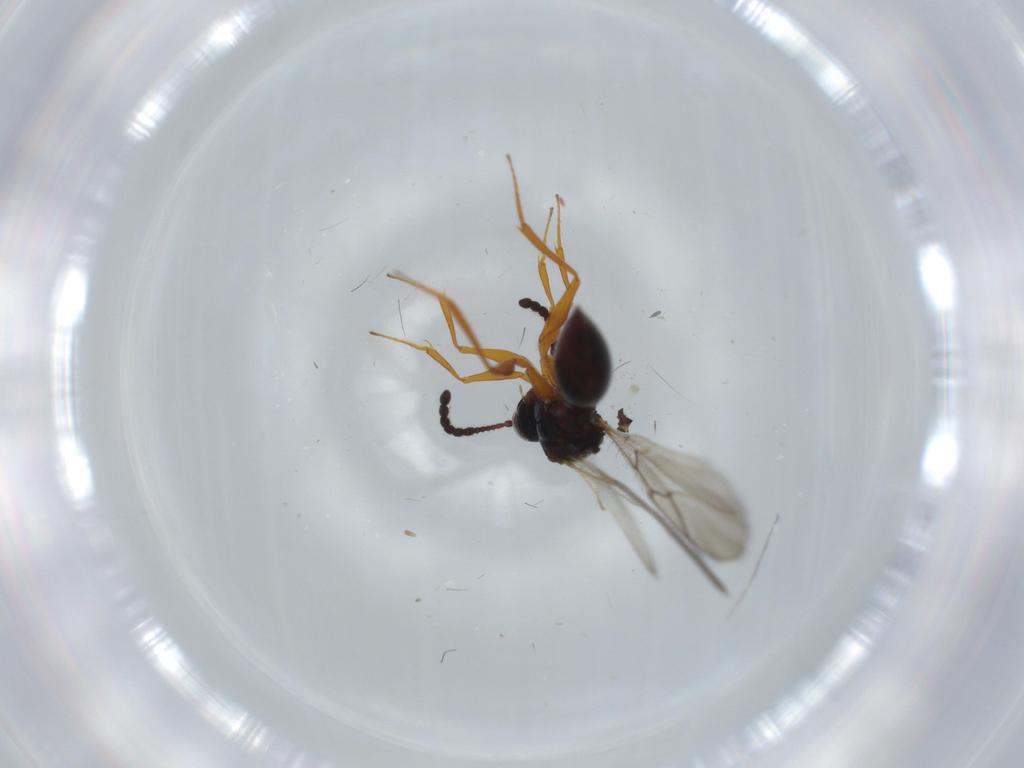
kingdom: Animalia
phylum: Arthropoda
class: Insecta
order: Hymenoptera
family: Figitidae
